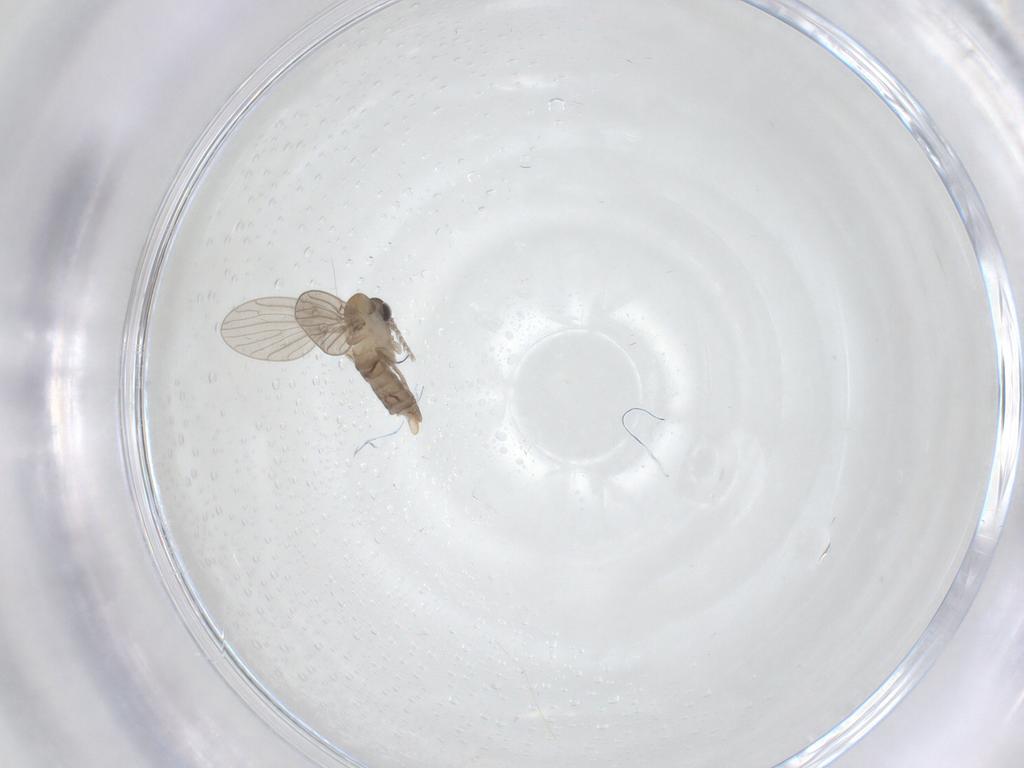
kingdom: Animalia
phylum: Arthropoda
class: Insecta
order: Diptera
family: Psychodidae
